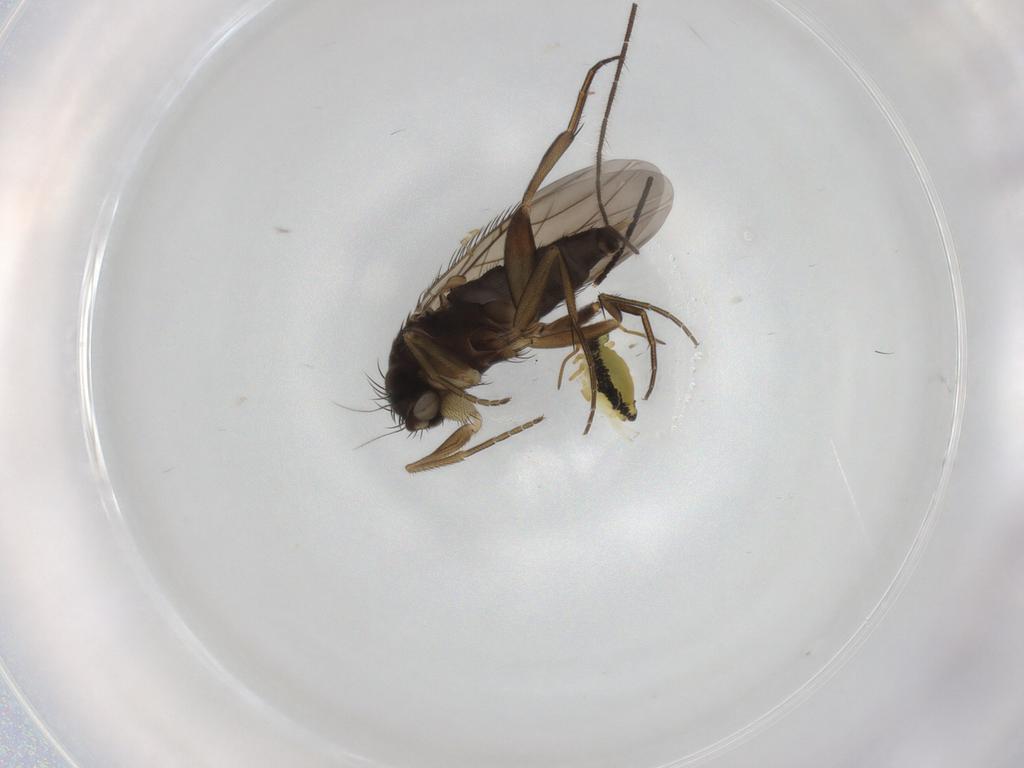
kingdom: Animalia
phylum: Arthropoda
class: Insecta
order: Diptera
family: Phoridae
